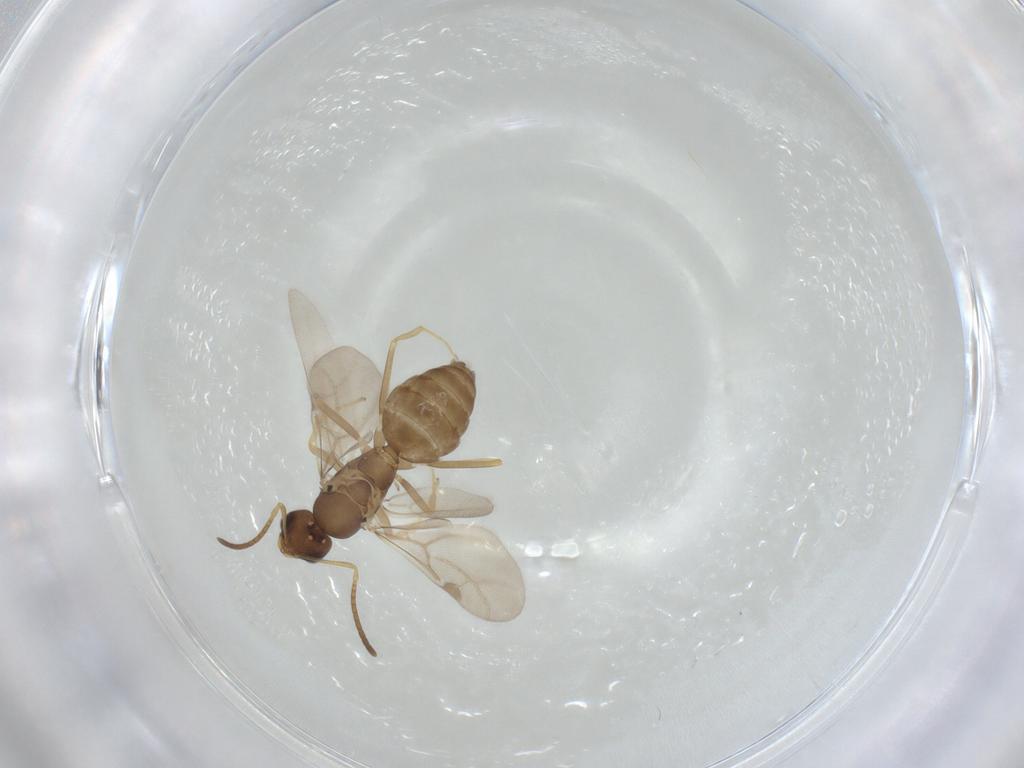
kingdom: Animalia
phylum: Arthropoda
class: Insecta
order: Hymenoptera
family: Formicidae
